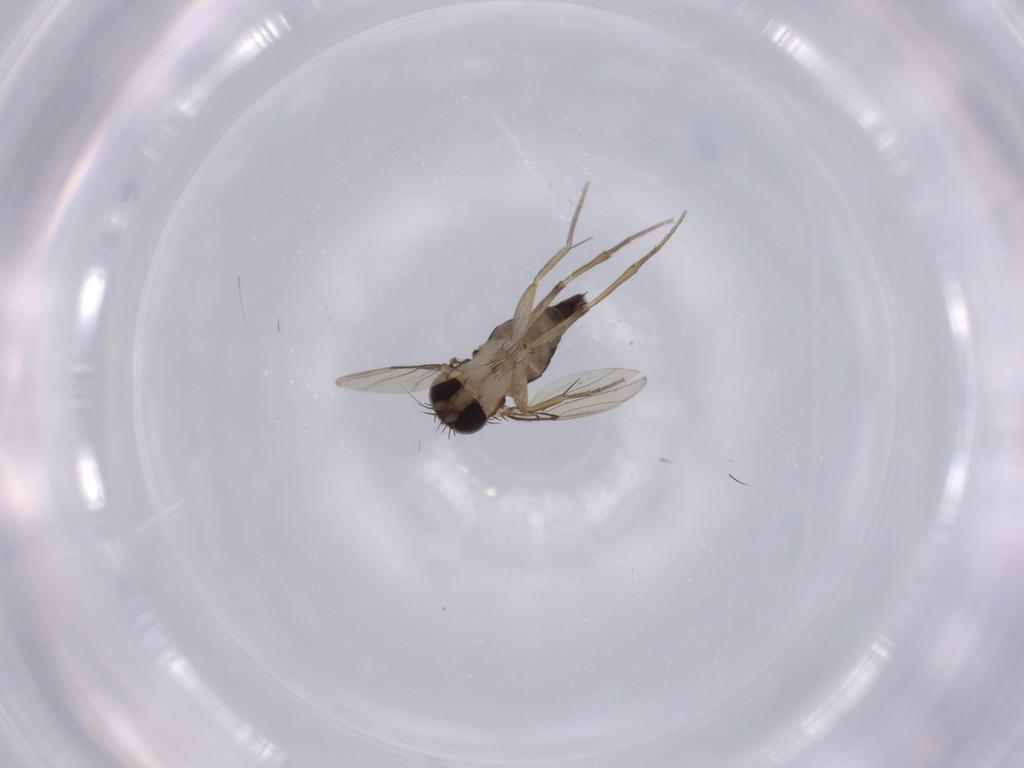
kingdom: Animalia
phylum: Arthropoda
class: Insecta
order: Diptera
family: Phoridae
